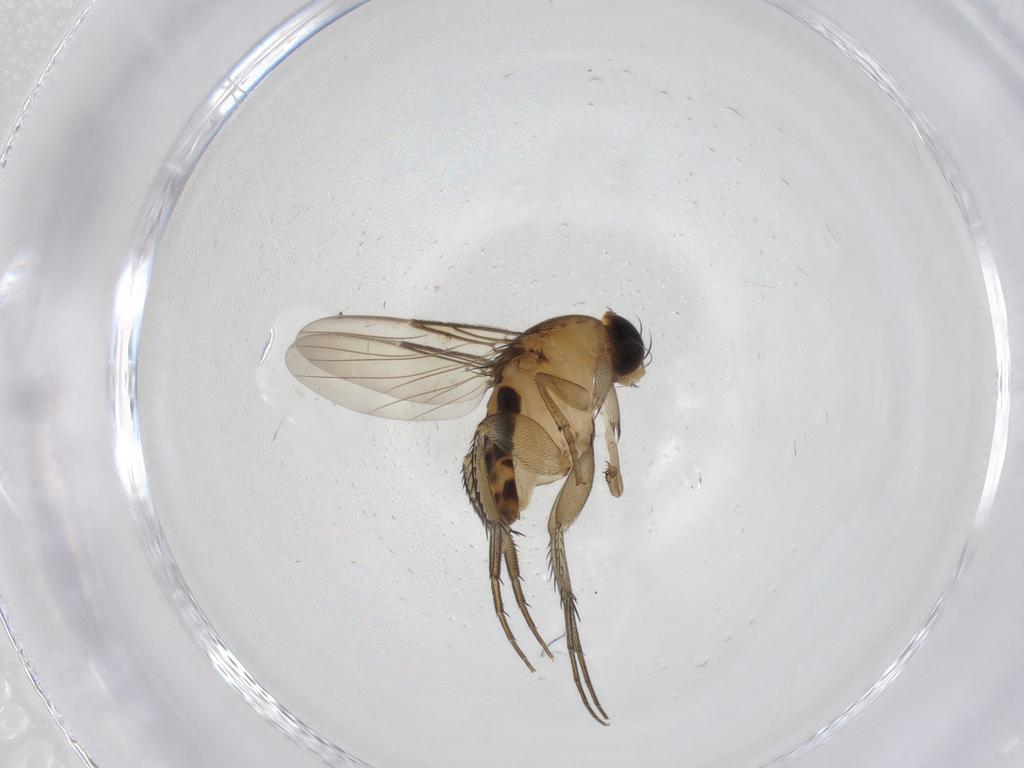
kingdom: Animalia
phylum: Arthropoda
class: Insecta
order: Diptera
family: Phoridae
